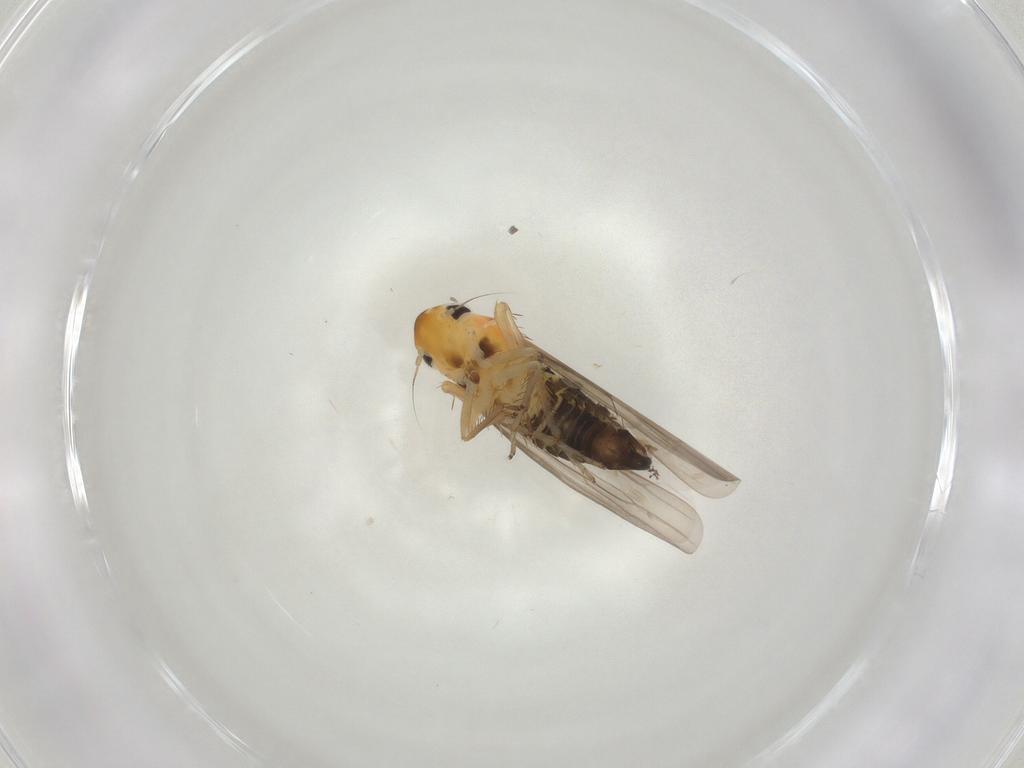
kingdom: Animalia
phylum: Arthropoda
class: Insecta
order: Hemiptera
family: Cicadellidae
